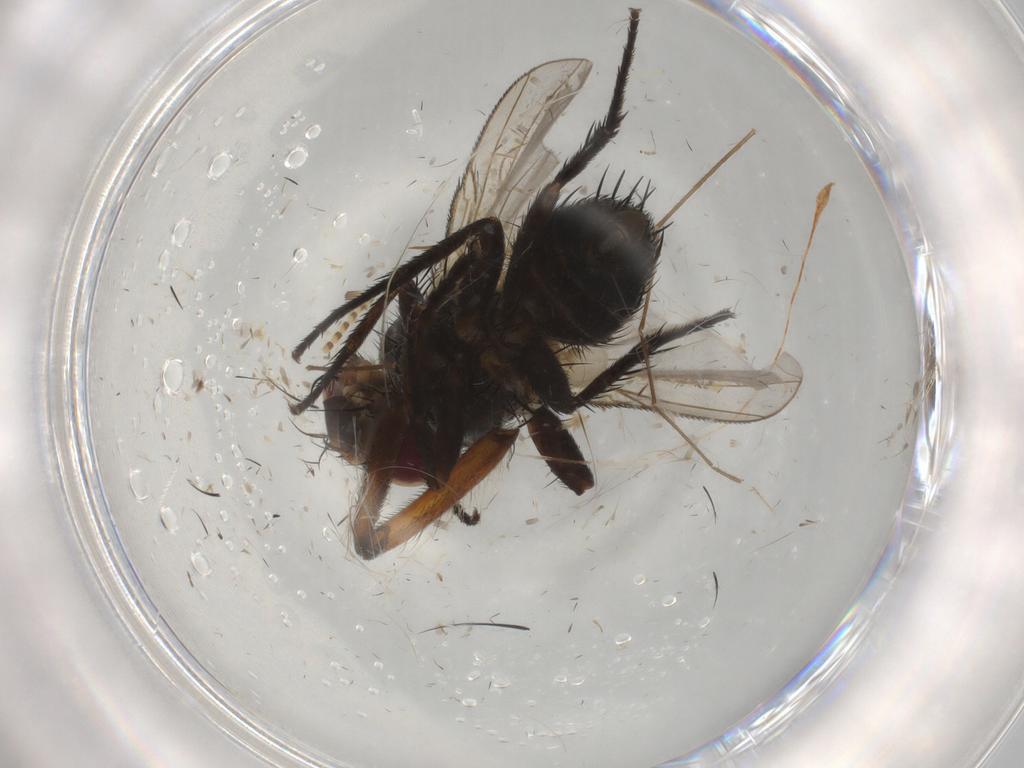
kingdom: Animalia
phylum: Arthropoda
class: Insecta
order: Diptera
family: Tachinidae
